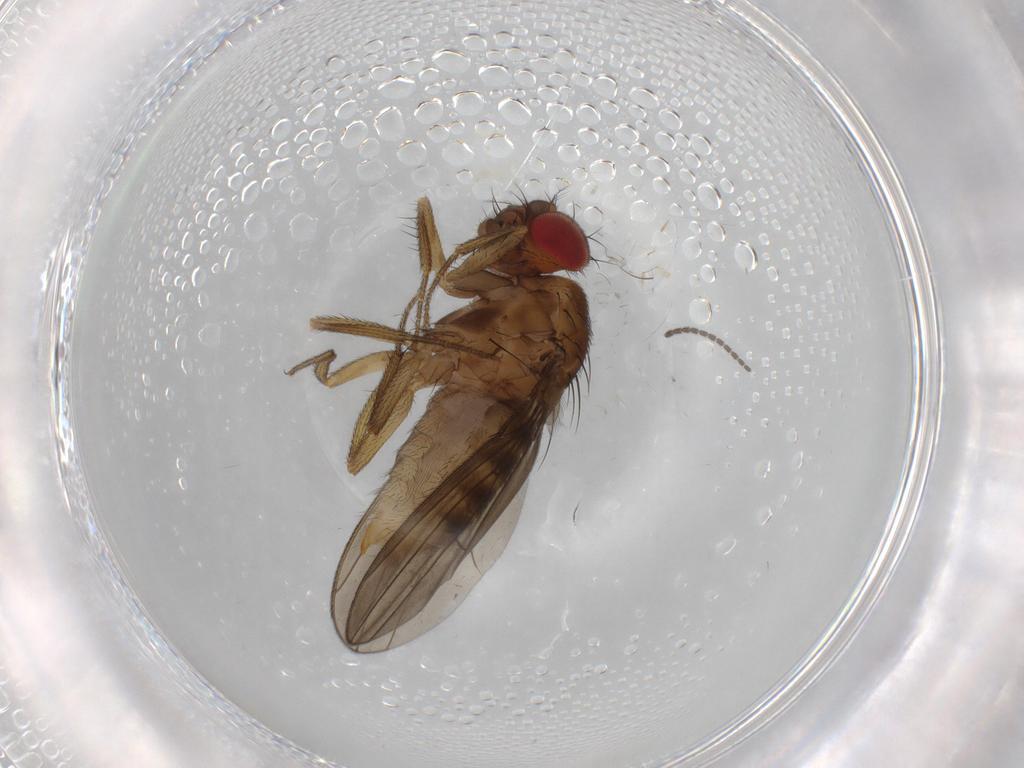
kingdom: Animalia
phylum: Arthropoda
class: Insecta
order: Diptera
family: Drosophilidae
